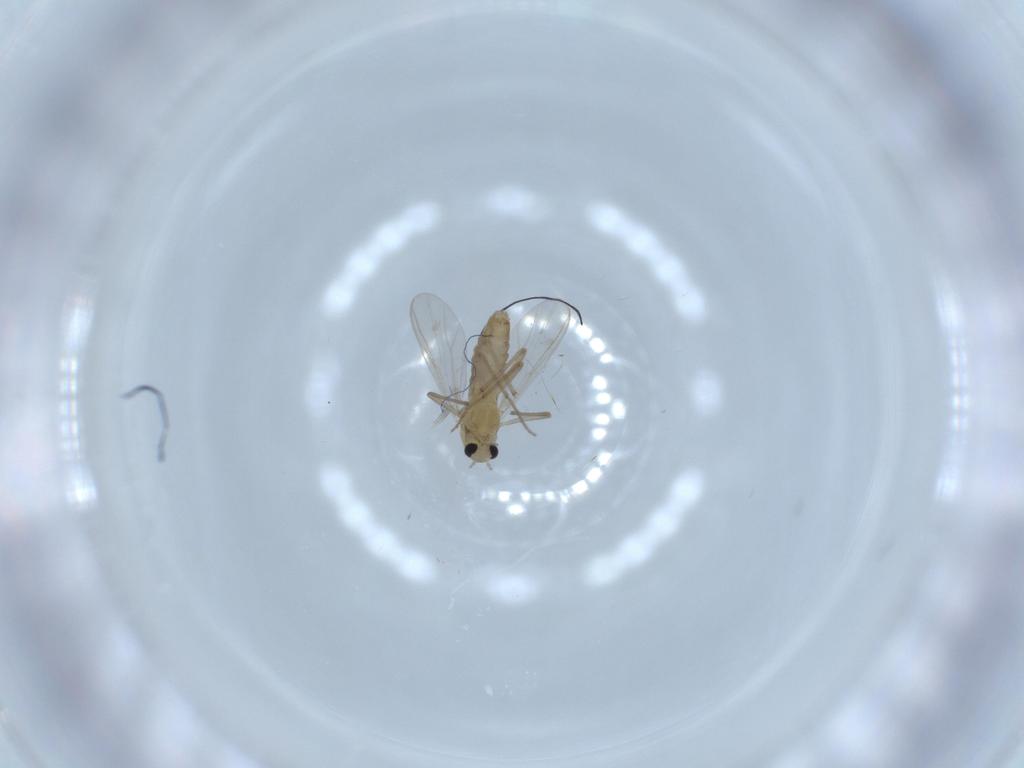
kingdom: Animalia
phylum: Arthropoda
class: Insecta
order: Diptera
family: Chironomidae
